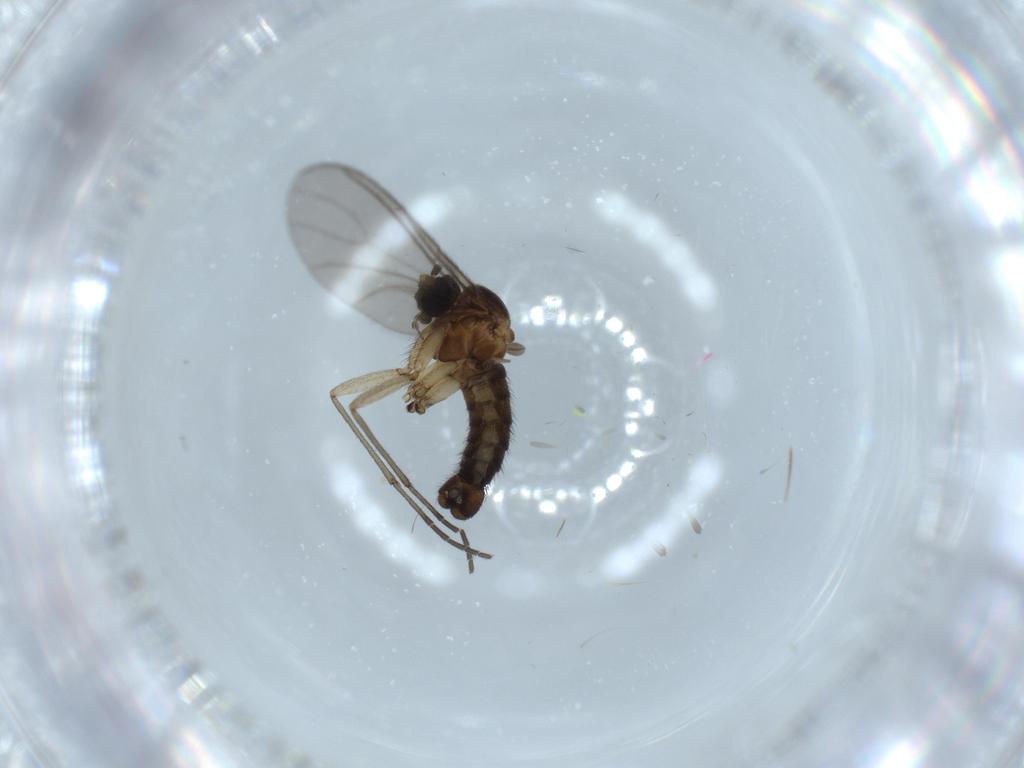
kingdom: Animalia
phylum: Arthropoda
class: Insecta
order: Diptera
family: Sciaridae
